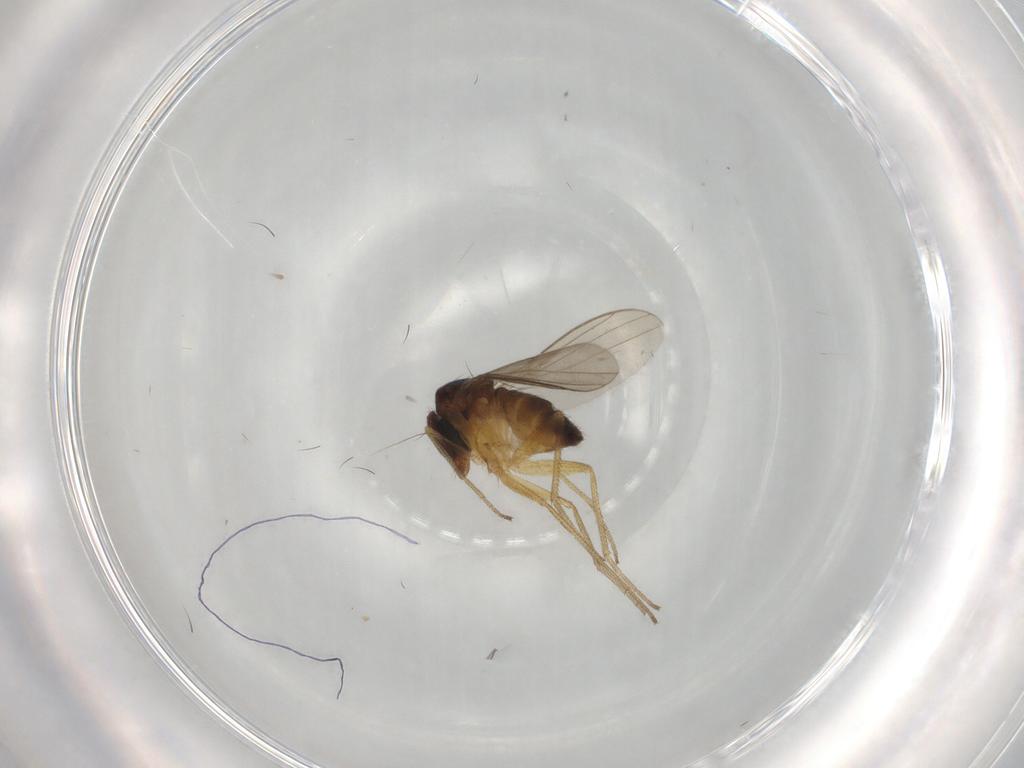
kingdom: Animalia
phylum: Arthropoda
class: Insecta
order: Diptera
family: Dolichopodidae
